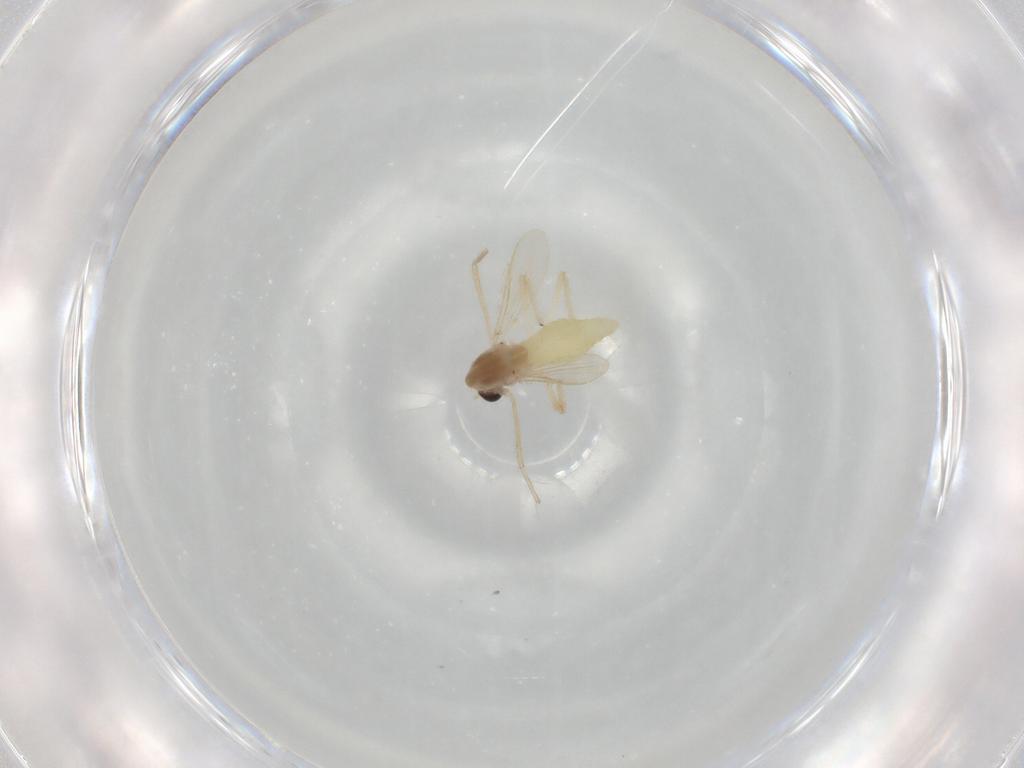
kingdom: Animalia
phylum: Arthropoda
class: Insecta
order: Diptera
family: Chironomidae
